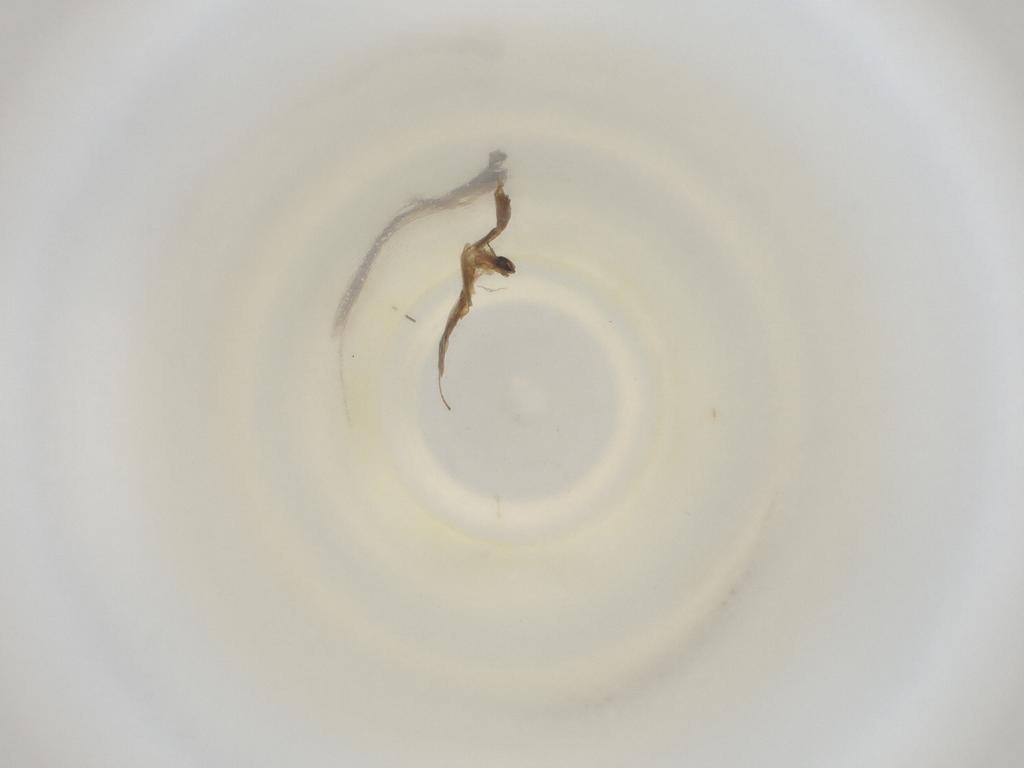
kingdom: Animalia
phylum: Arthropoda
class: Insecta
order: Diptera
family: Cecidomyiidae
